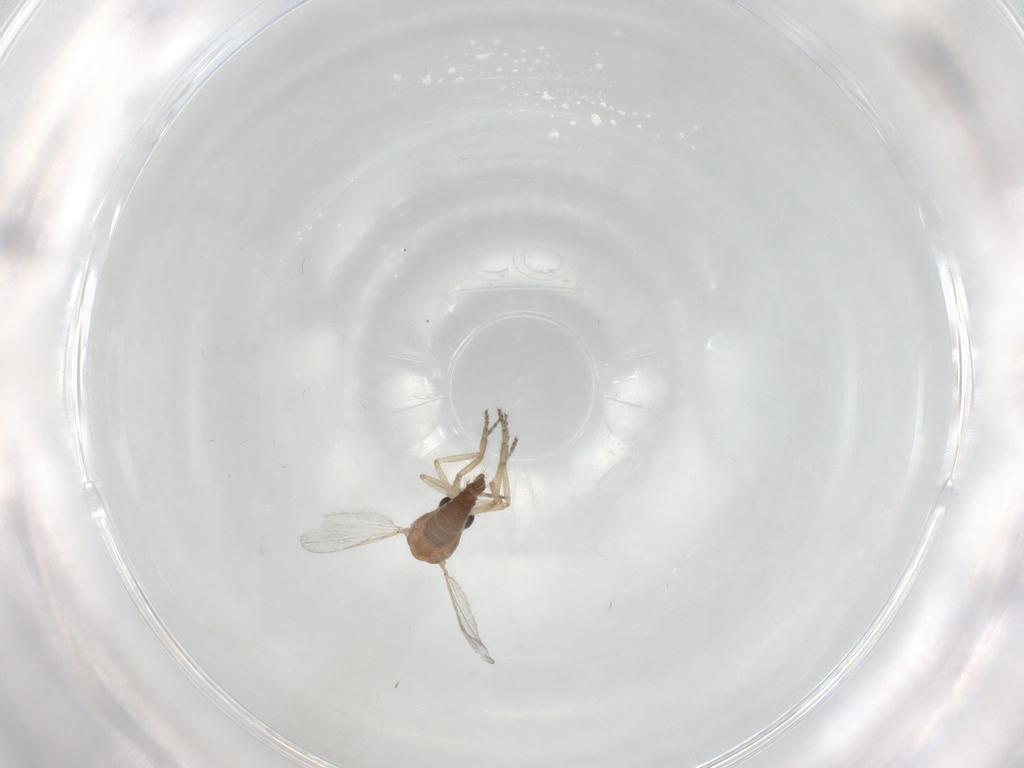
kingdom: Animalia
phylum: Arthropoda
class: Insecta
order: Diptera
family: Ceratopogonidae
